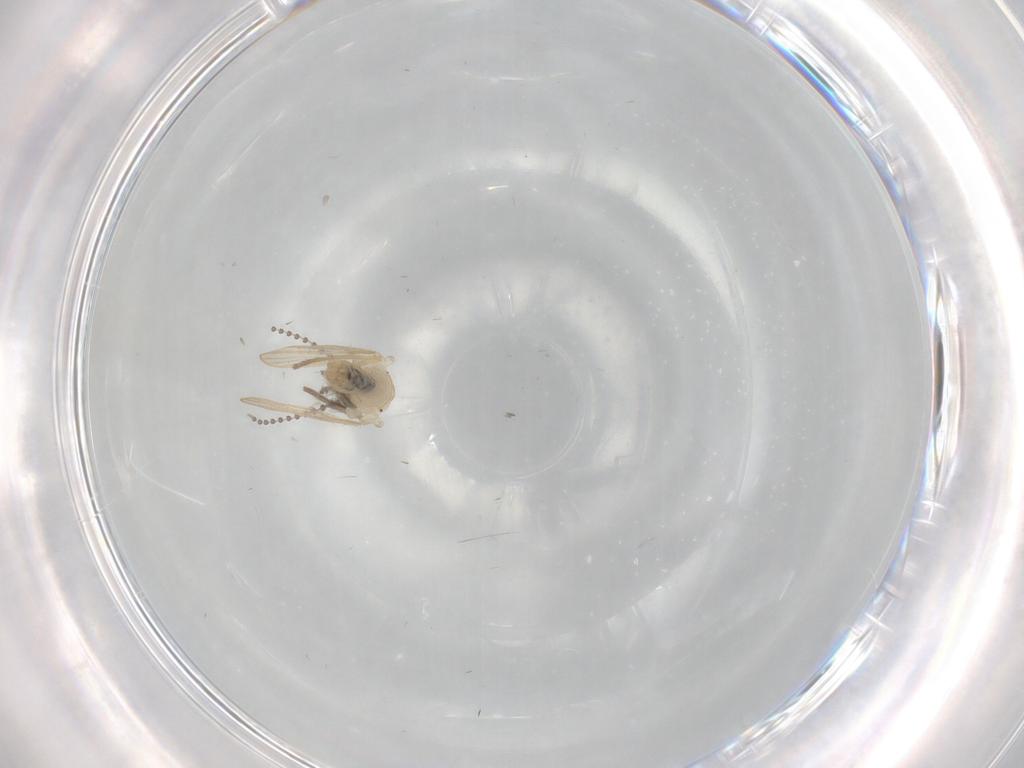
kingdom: Animalia
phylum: Arthropoda
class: Insecta
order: Diptera
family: Psychodidae
